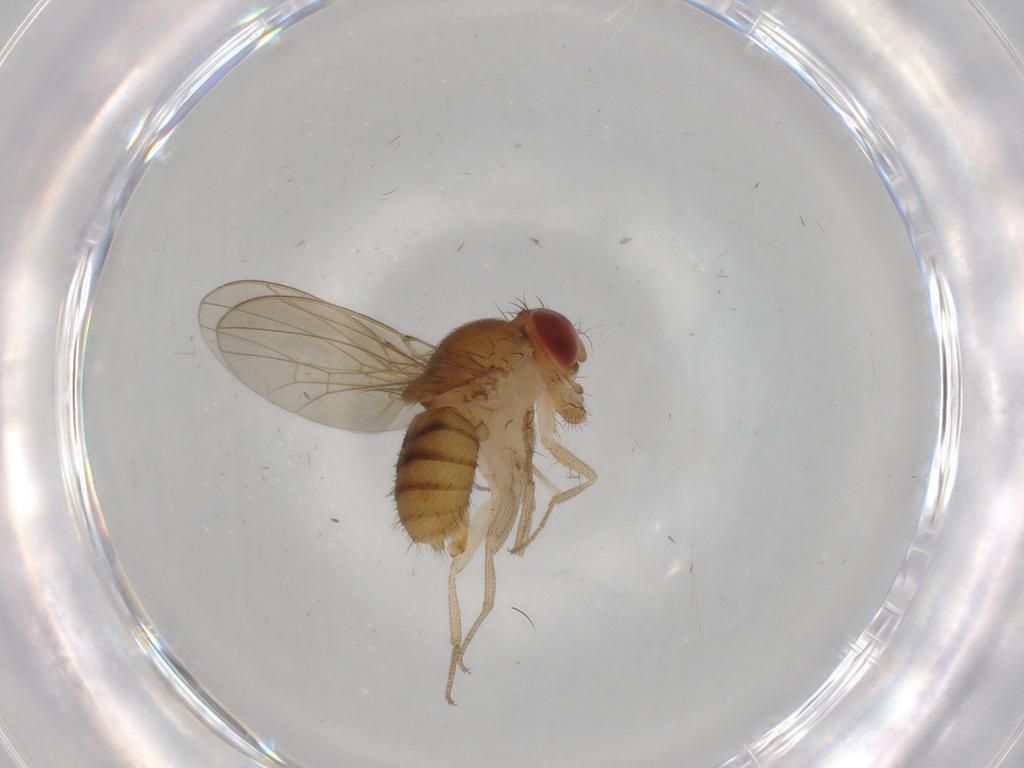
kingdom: Animalia
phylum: Arthropoda
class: Insecta
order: Diptera
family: Drosophilidae
